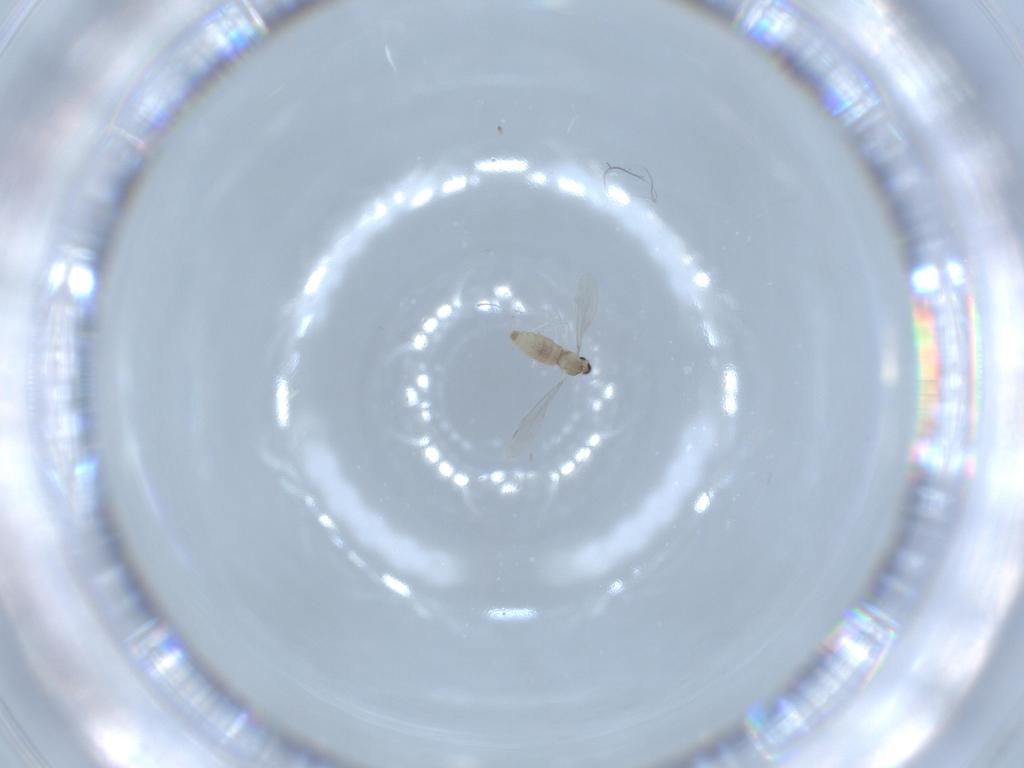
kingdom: Animalia
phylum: Arthropoda
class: Insecta
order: Diptera
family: Cecidomyiidae
